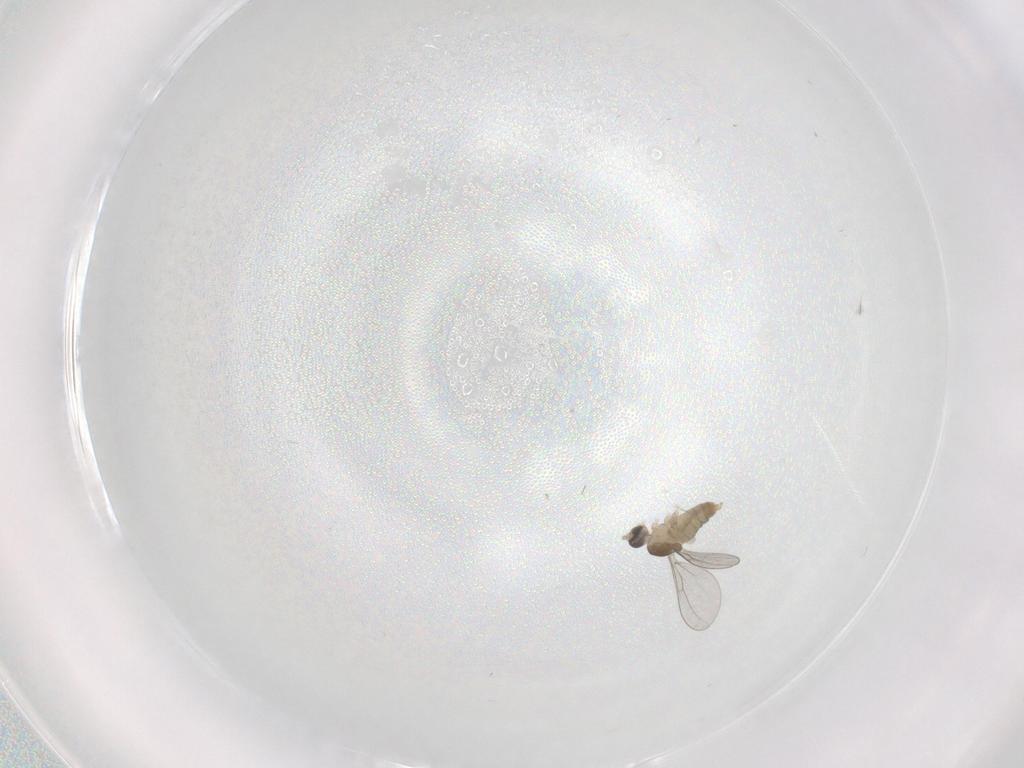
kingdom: Animalia
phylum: Arthropoda
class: Insecta
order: Diptera
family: Cecidomyiidae
